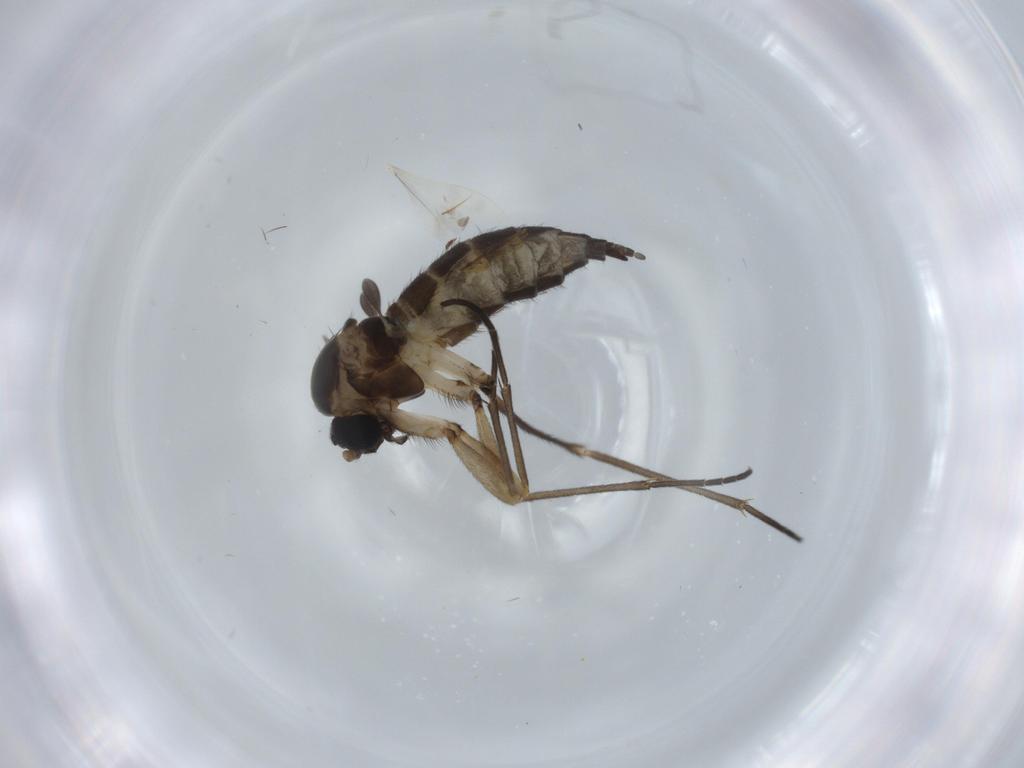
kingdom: Animalia
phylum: Arthropoda
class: Insecta
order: Diptera
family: Sciaridae
